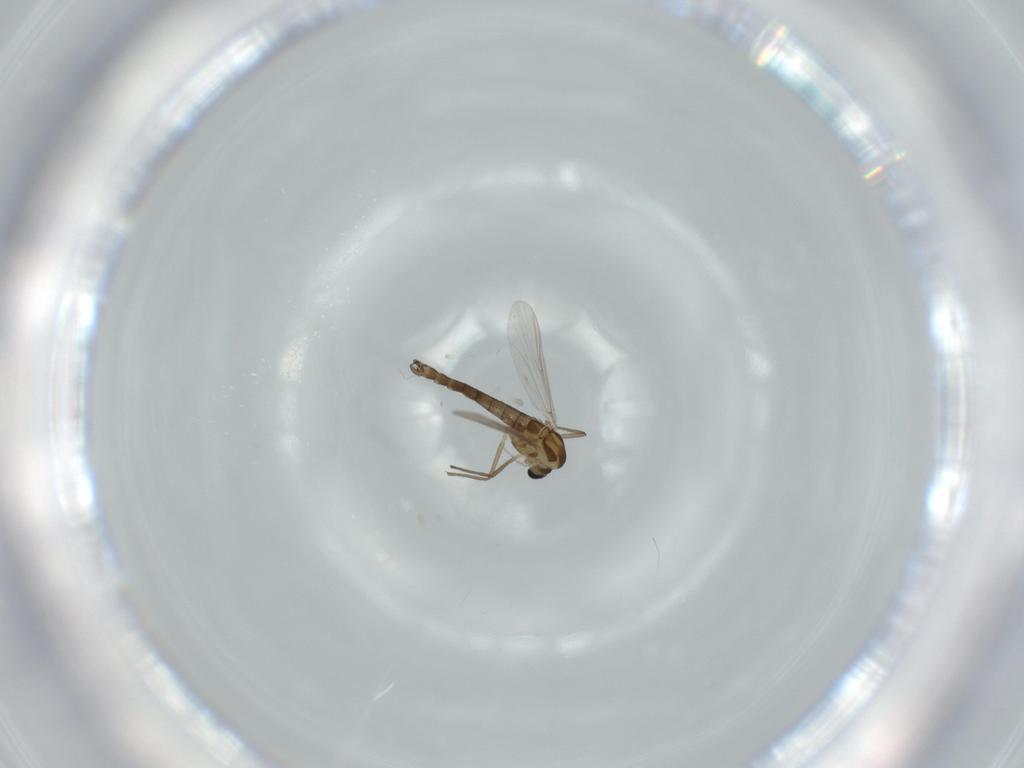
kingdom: Animalia
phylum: Arthropoda
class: Insecta
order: Diptera
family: Chironomidae
